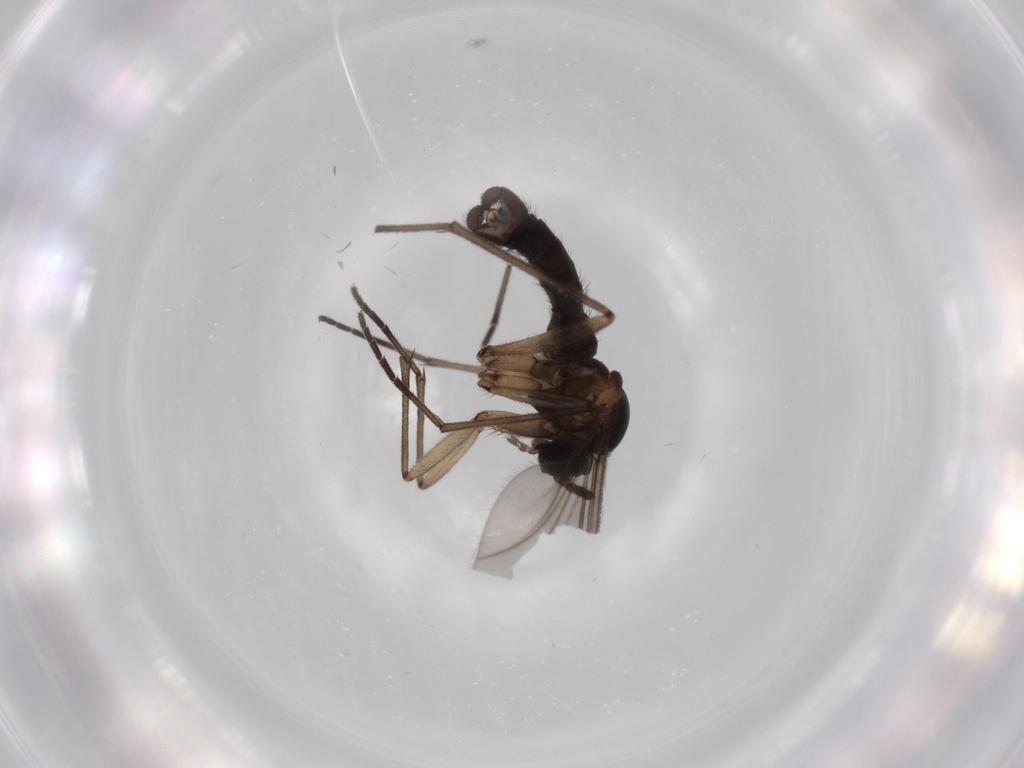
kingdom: Animalia
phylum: Arthropoda
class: Insecta
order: Diptera
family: Sciaridae
